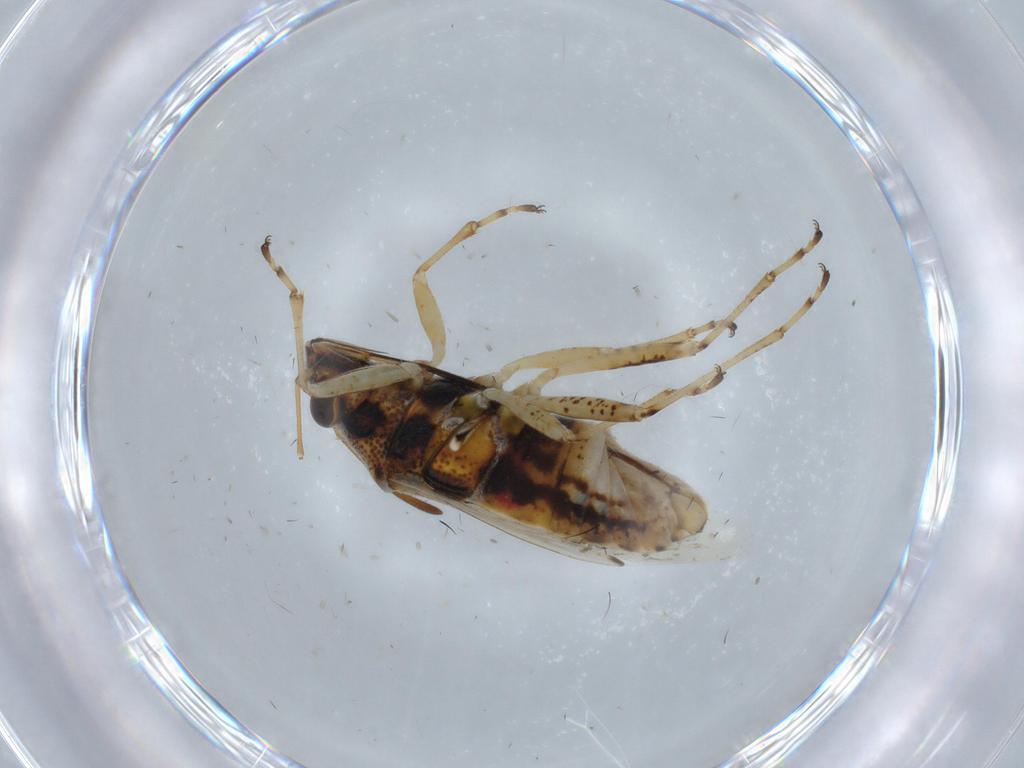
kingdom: Animalia
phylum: Arthropoda
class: Insecta
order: Hemiptera
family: Lygaeidae
